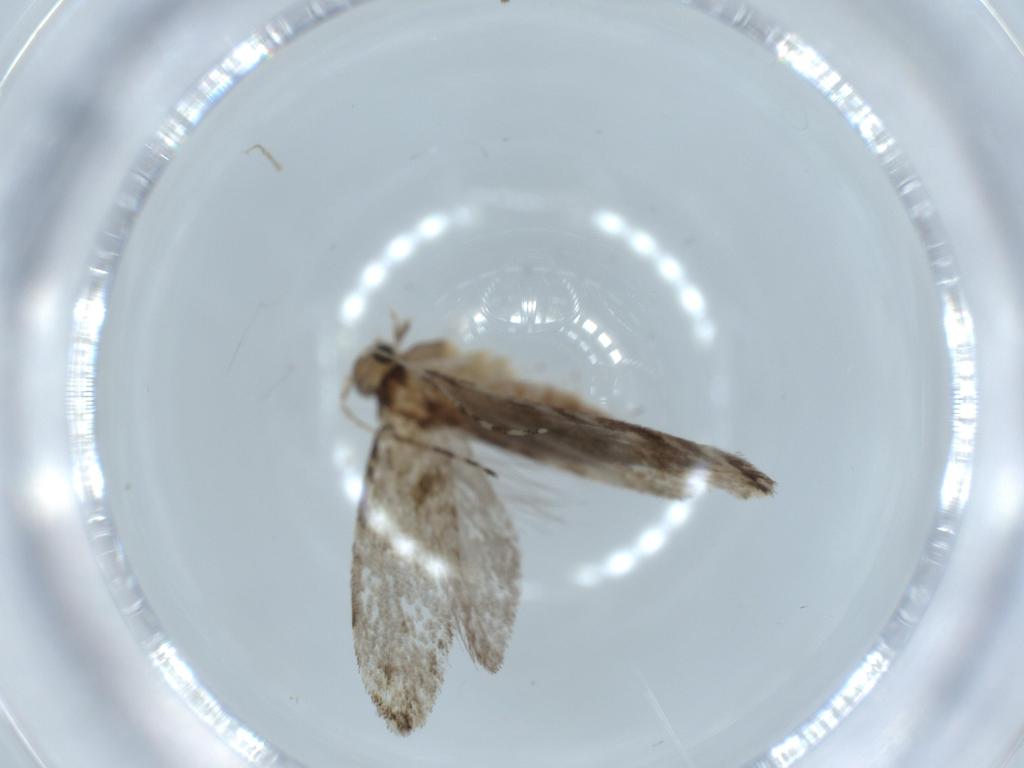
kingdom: Animalia
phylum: Arthropoda
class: Insecta
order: Lepidoptera
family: Tineidae
